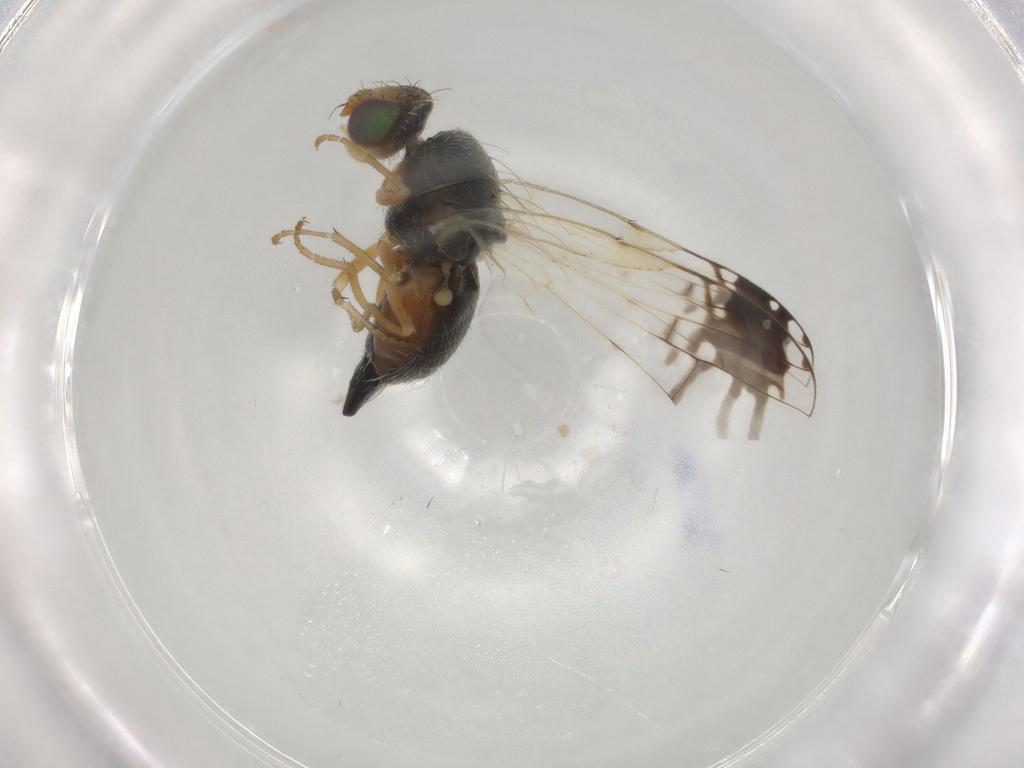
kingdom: Animalia
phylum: Arthropoda
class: Insecta
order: Diptera
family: Tephritidae
